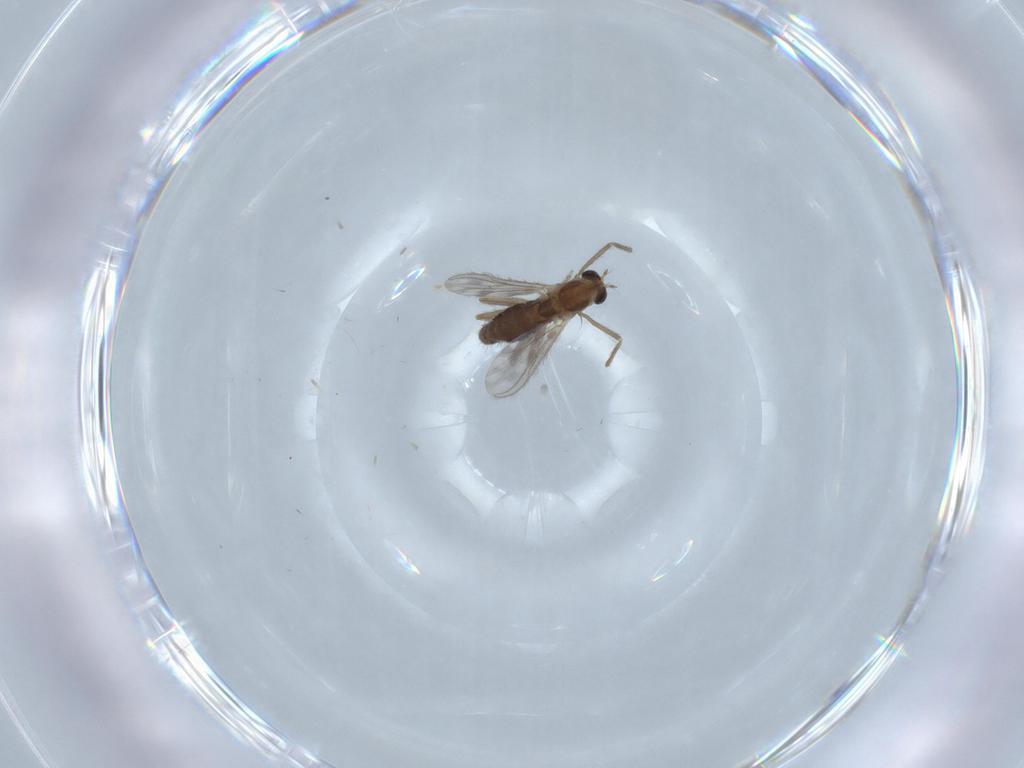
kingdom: Animalia
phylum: Arthropoda
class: Insecta
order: Diptera
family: Chironomidae
